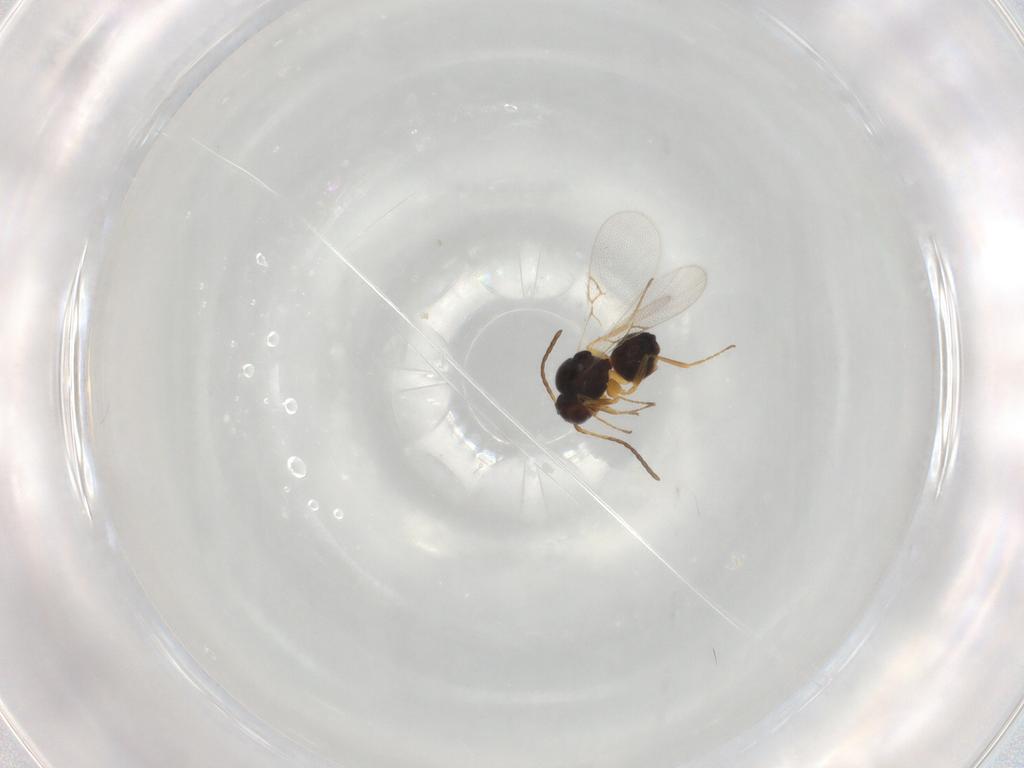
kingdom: Animalia
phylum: Arthropoda
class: Insecta
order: Hymenoptera
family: Figitidae
